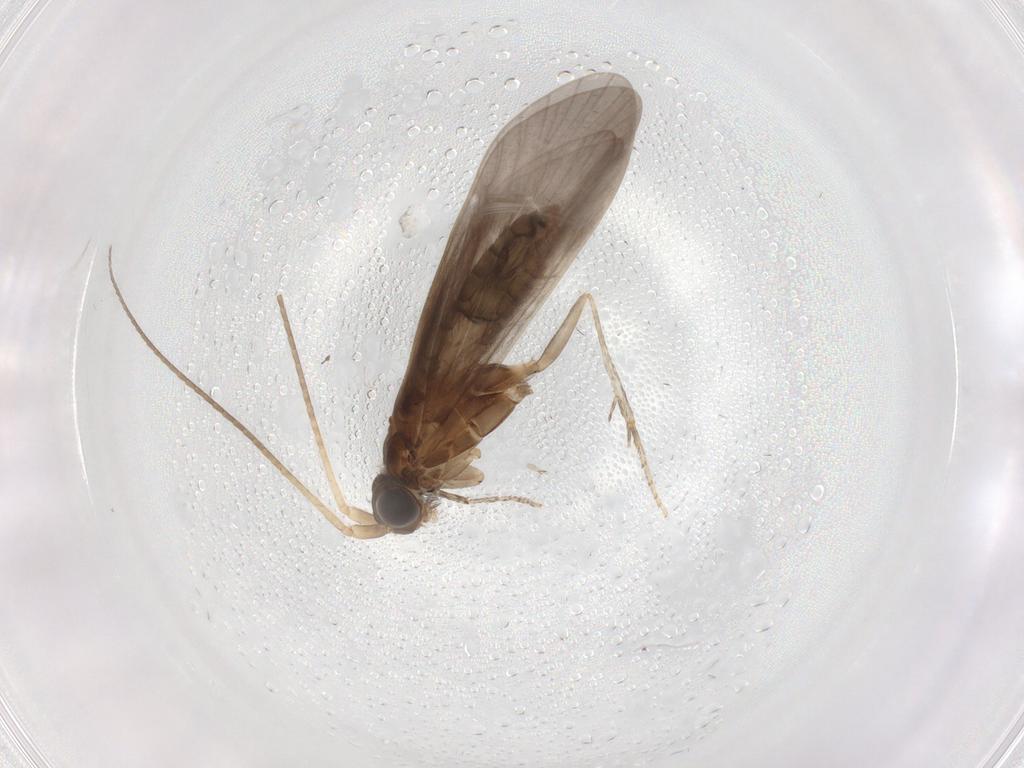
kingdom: Animalia
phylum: Arthropoda
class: Insecta
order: Trichoptera
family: Helicopsychidae
